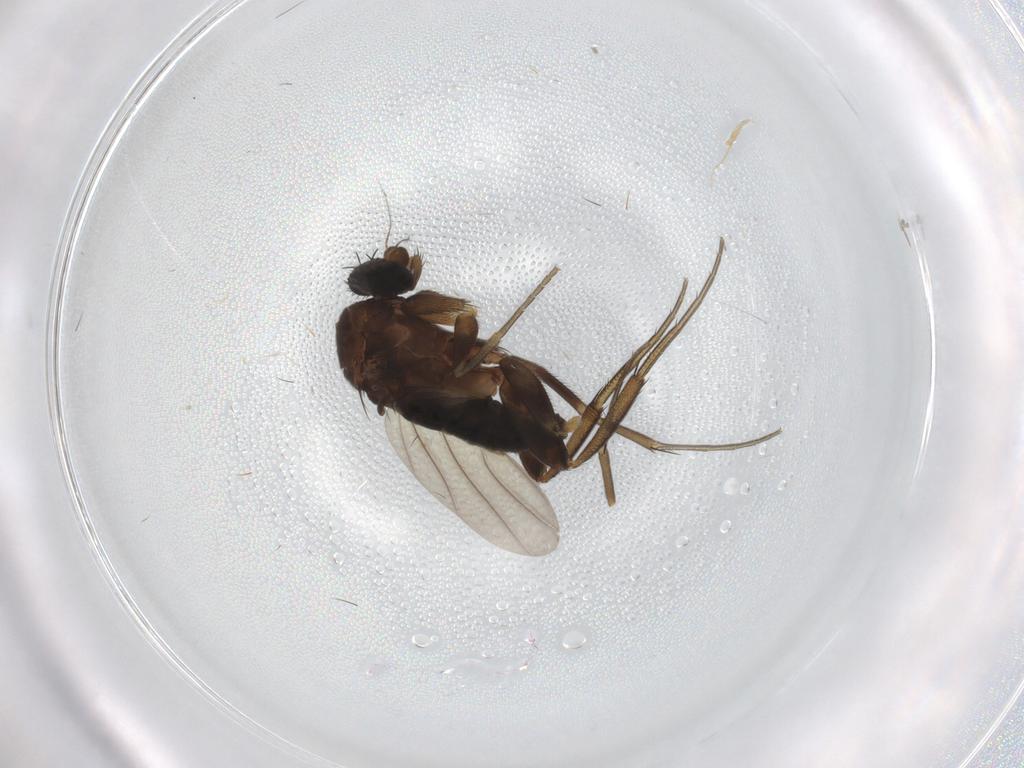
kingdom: Animalia
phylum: Arthropoda
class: Insecta
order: Diptera
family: Phoridae
